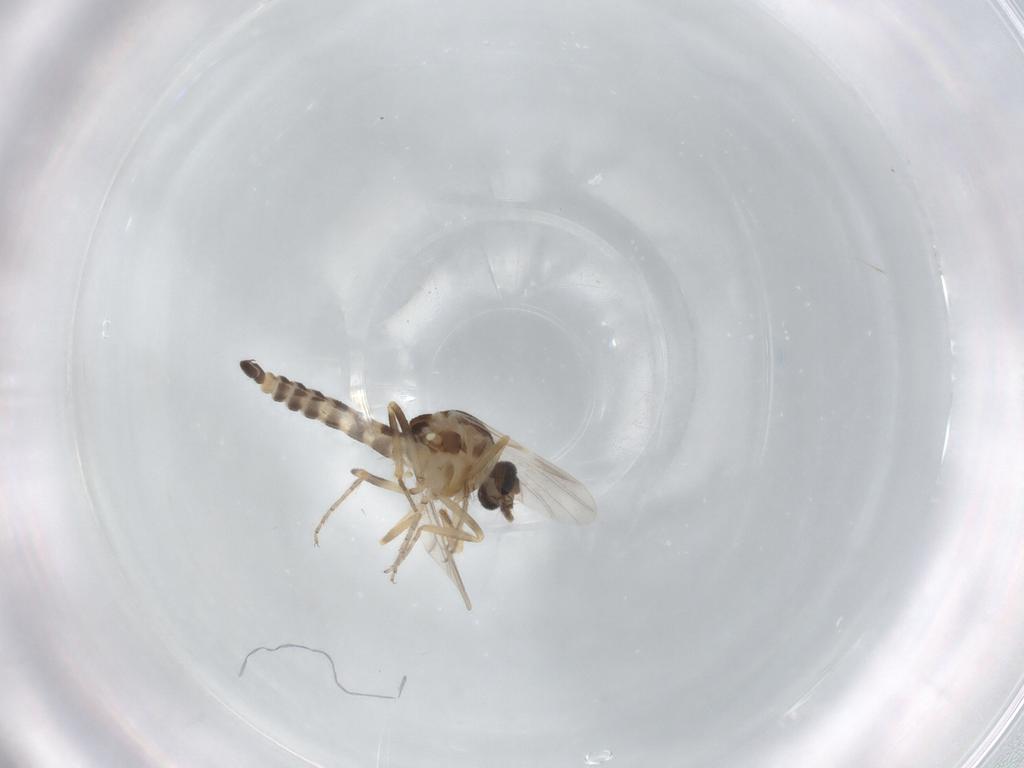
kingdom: Animalia
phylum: Arthropoda
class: Insecta
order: Diptera
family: Ceratopogonidae
